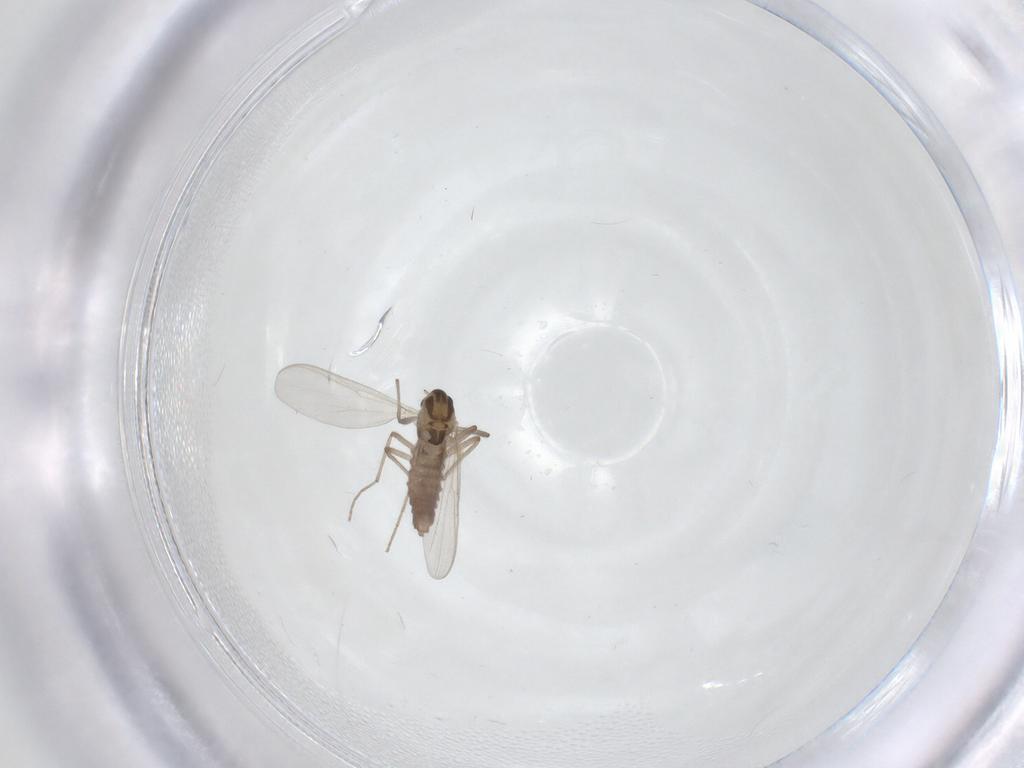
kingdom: Animalia
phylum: Arthropoda
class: Insecta
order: Diptera
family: Chironomidae
